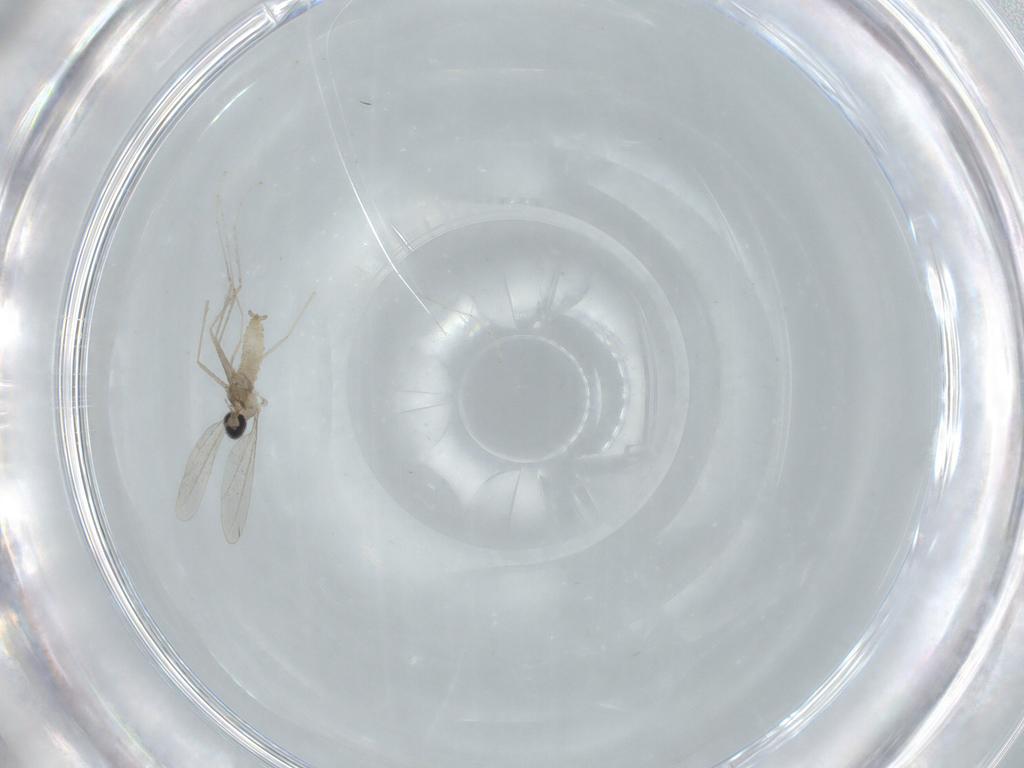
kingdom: Animalia
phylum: Arthropoda
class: Insecta
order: Diptera
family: Cecidomyiidae
